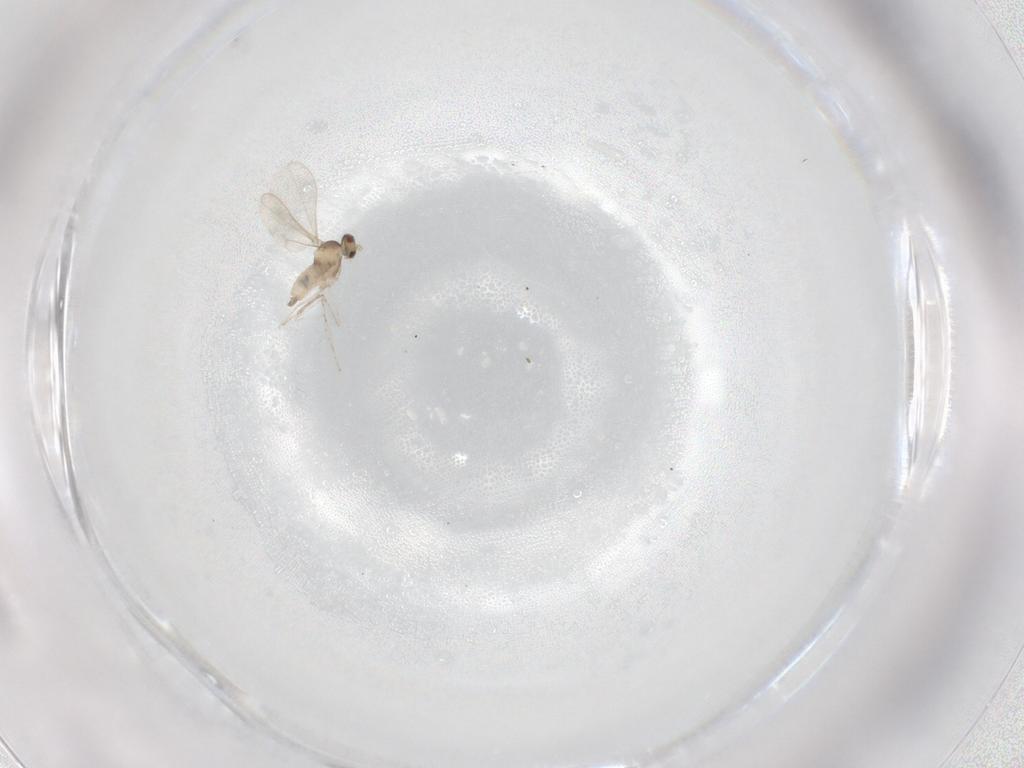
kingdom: Animalia
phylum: Arthropoda
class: Insecta
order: Diptera
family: Cecidomyiidae
